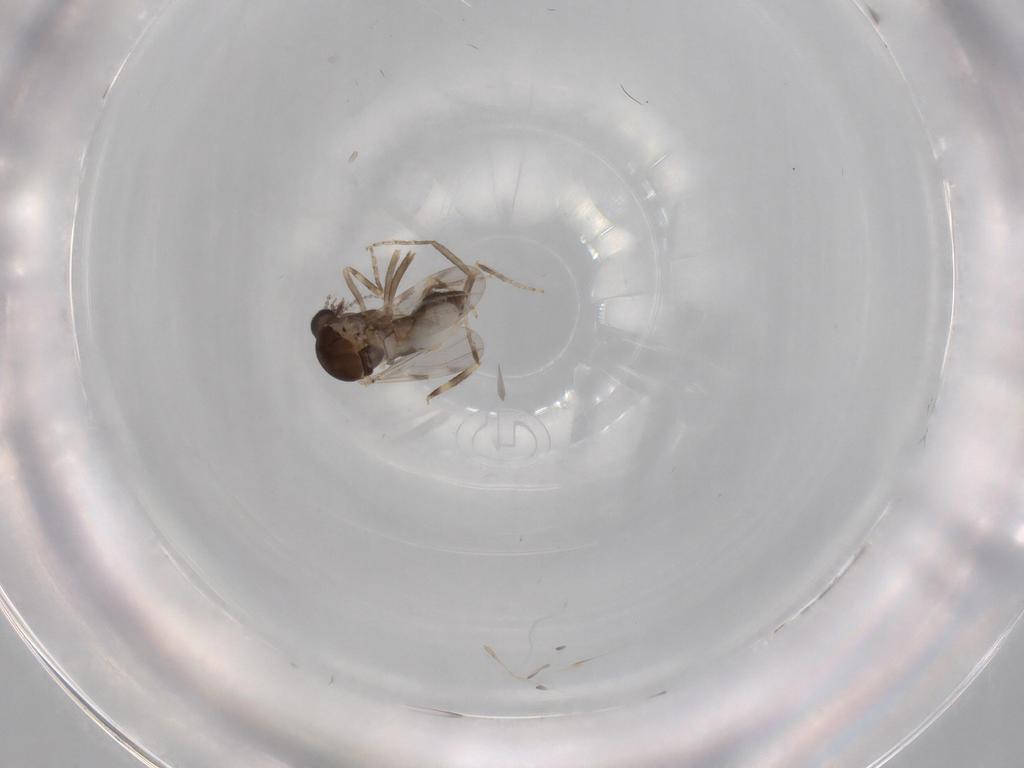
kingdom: Animalia
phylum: Arthropoda
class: Insecta
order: Diptera
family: Ceratopogonidae
